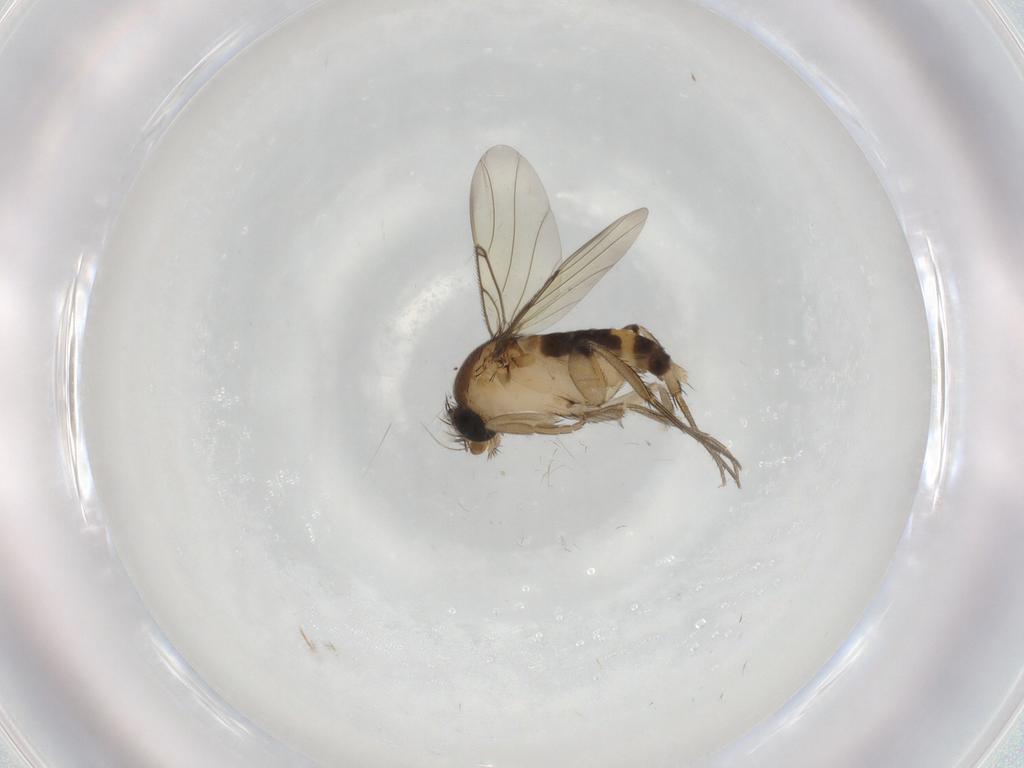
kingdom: Animalia
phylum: Arthropoda
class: Insecta
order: Diptera
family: Phoridae
